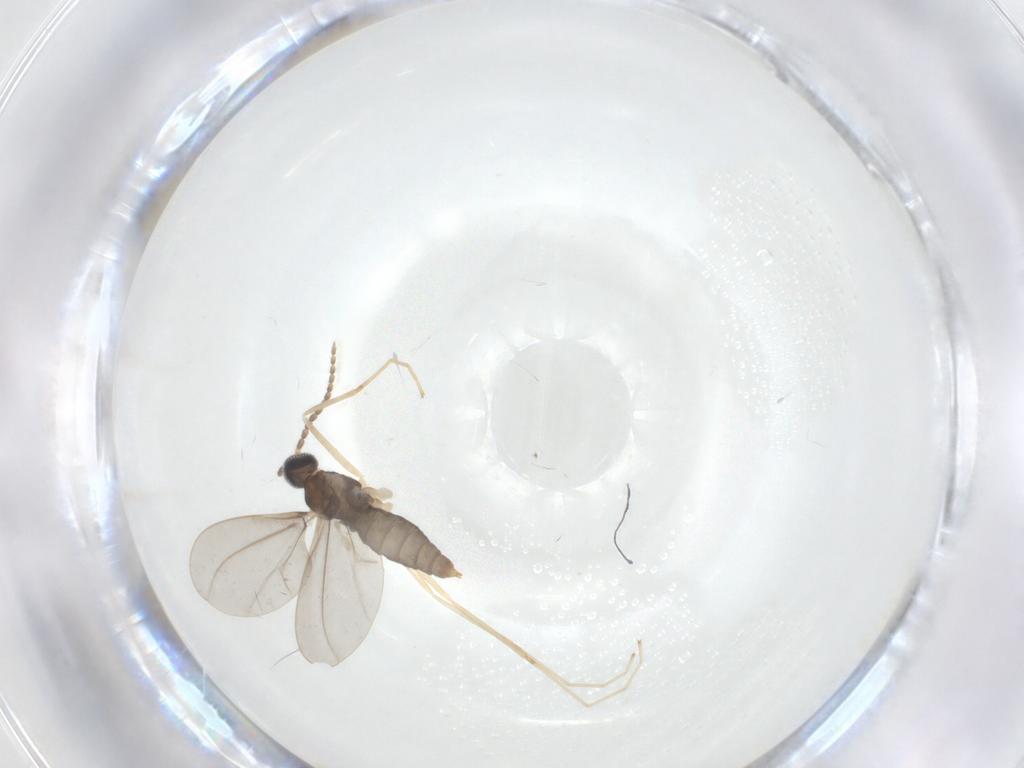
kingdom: Animalia
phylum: Arthropoda
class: Insecta
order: Diptera
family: Cecidomyiidae
